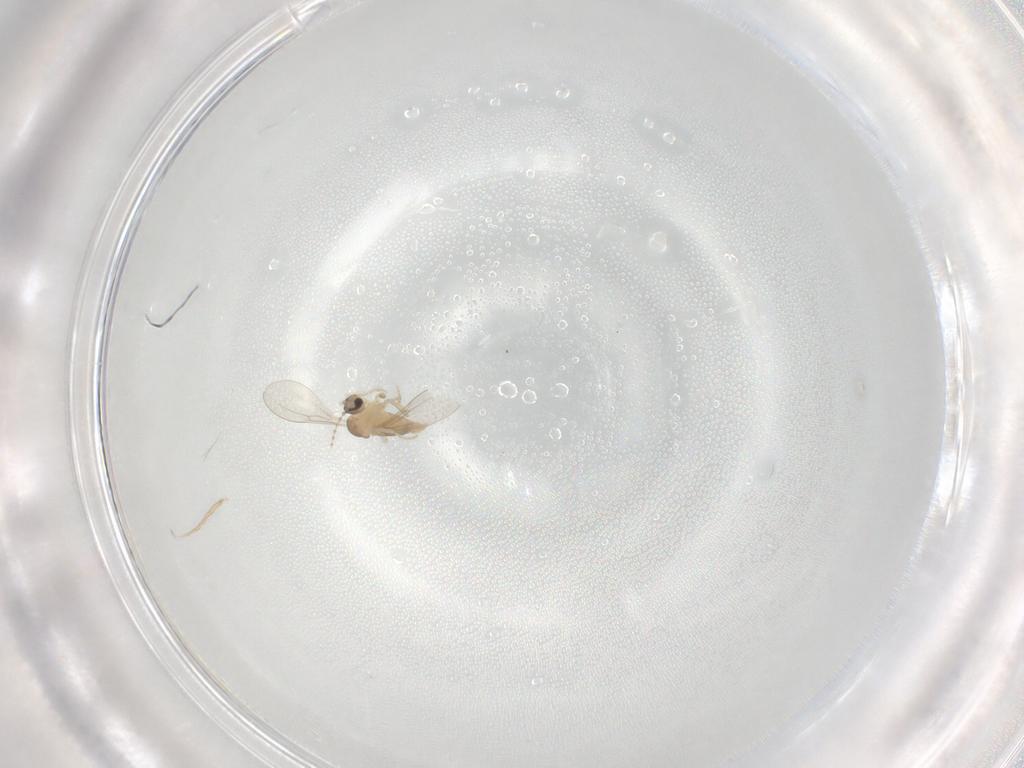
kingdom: Animalia
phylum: Arthropoda
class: Insecta
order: Diptera
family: Cecidomyiidae
